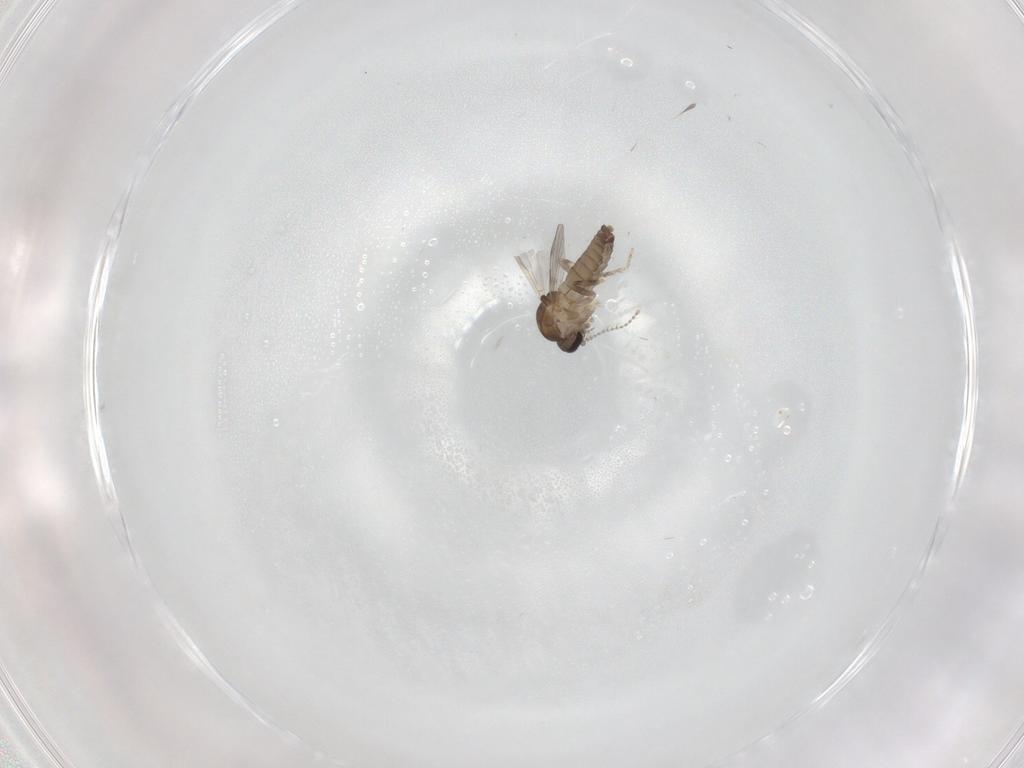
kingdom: Animalia
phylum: Arthropoda
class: Insecta
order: Diptera
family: Ceratopogonidae
